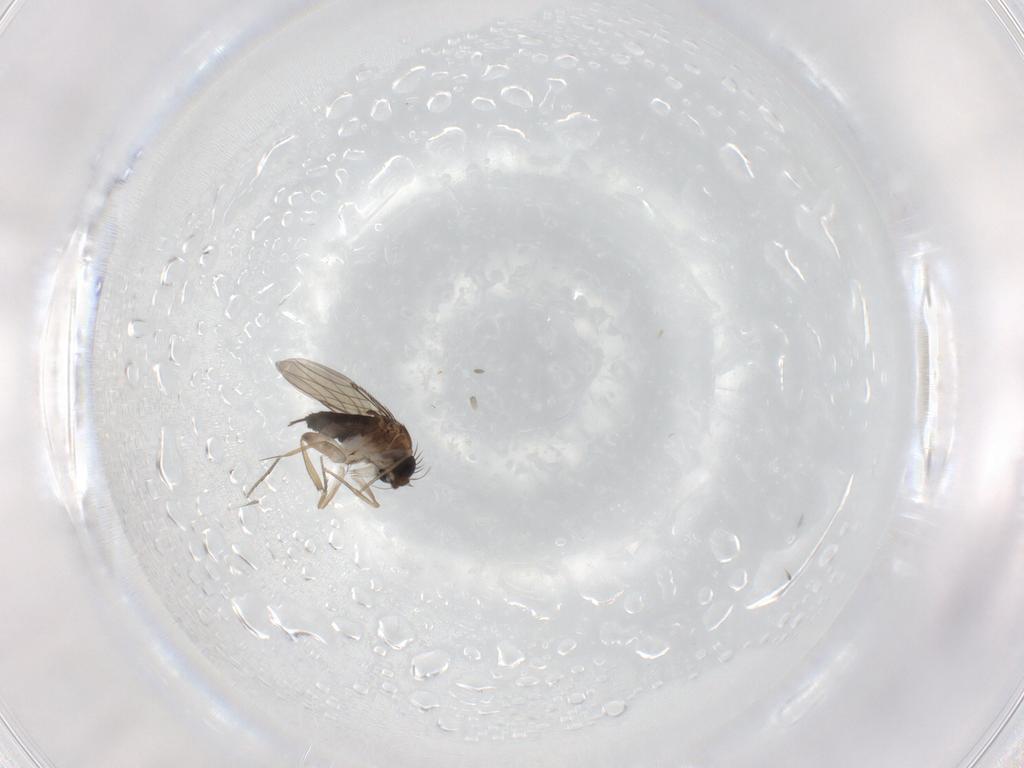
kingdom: Animalia
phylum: Arthropoda
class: Insecta
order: Diptera
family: Phoridae
